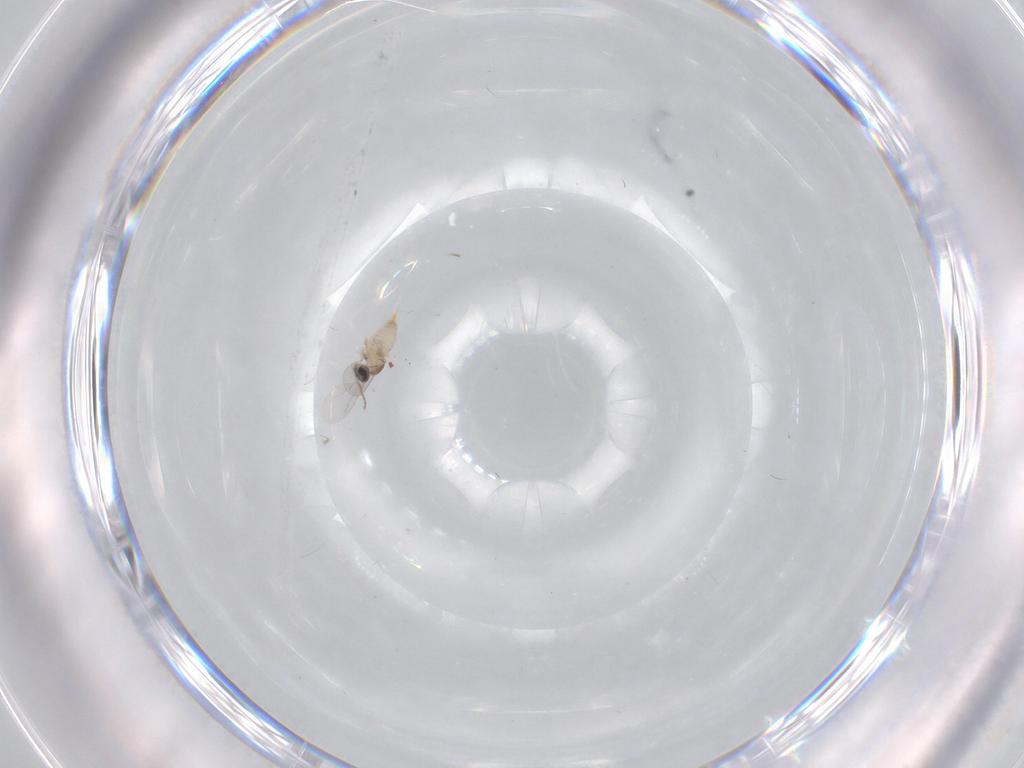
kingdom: Animalia
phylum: Arthropoda
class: Insecta
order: Diptera
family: Cecidomyiidae
